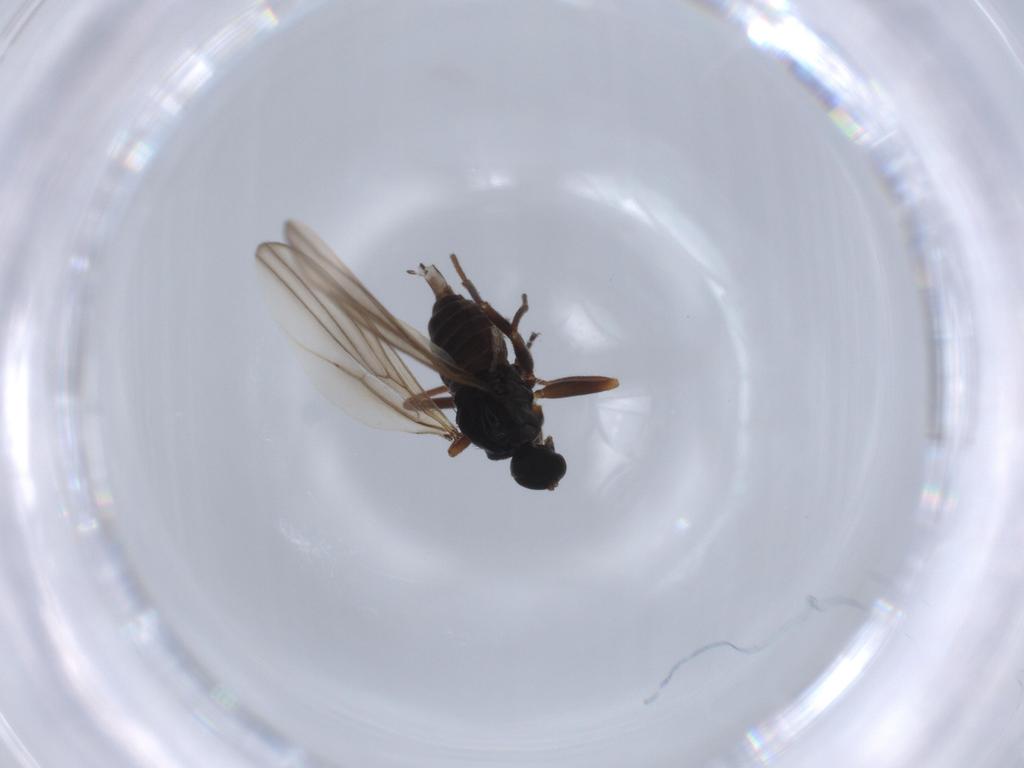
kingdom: Animalia
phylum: Arthropoda
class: Insecta
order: Diptera
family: Hybotidae
